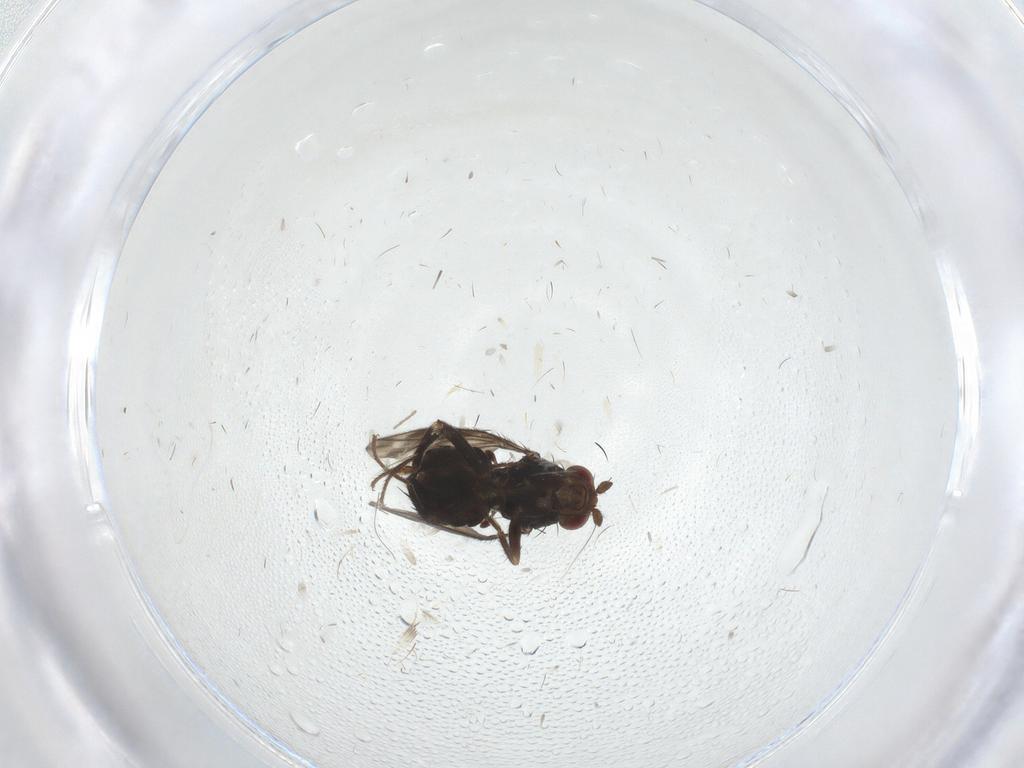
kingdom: Animalia
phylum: Arthropoda
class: Insecta
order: Diptera
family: Sphaeroceridae
